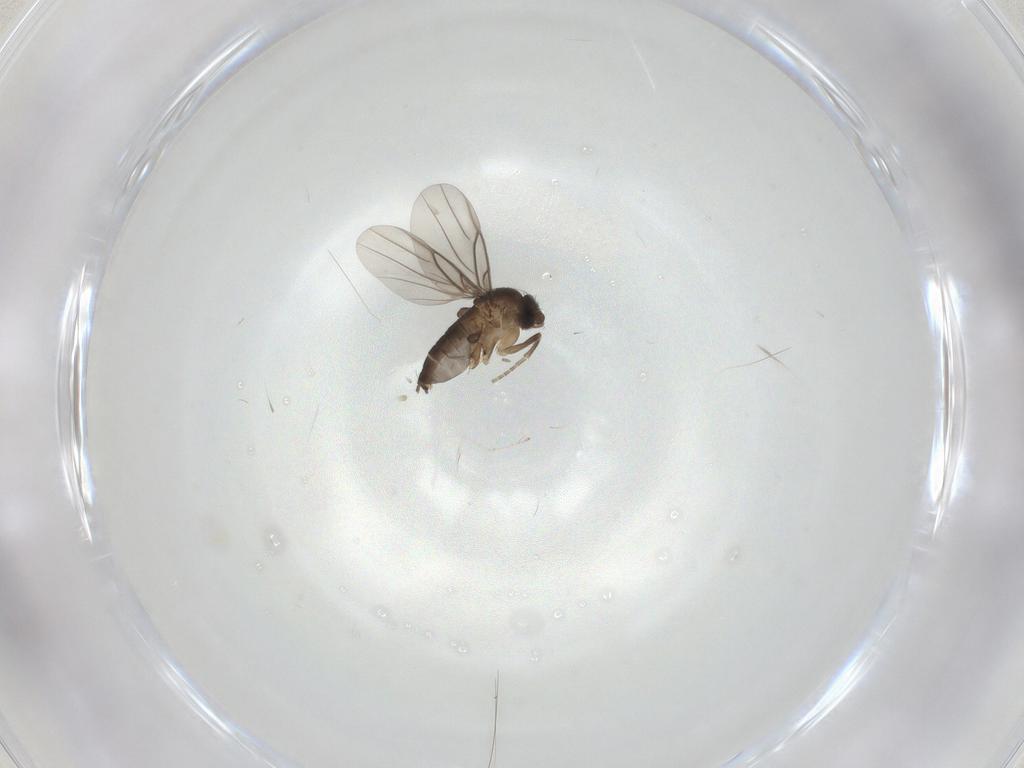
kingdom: Animalia
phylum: Arthropoda
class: Insecta
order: Diptera
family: Phoridae
